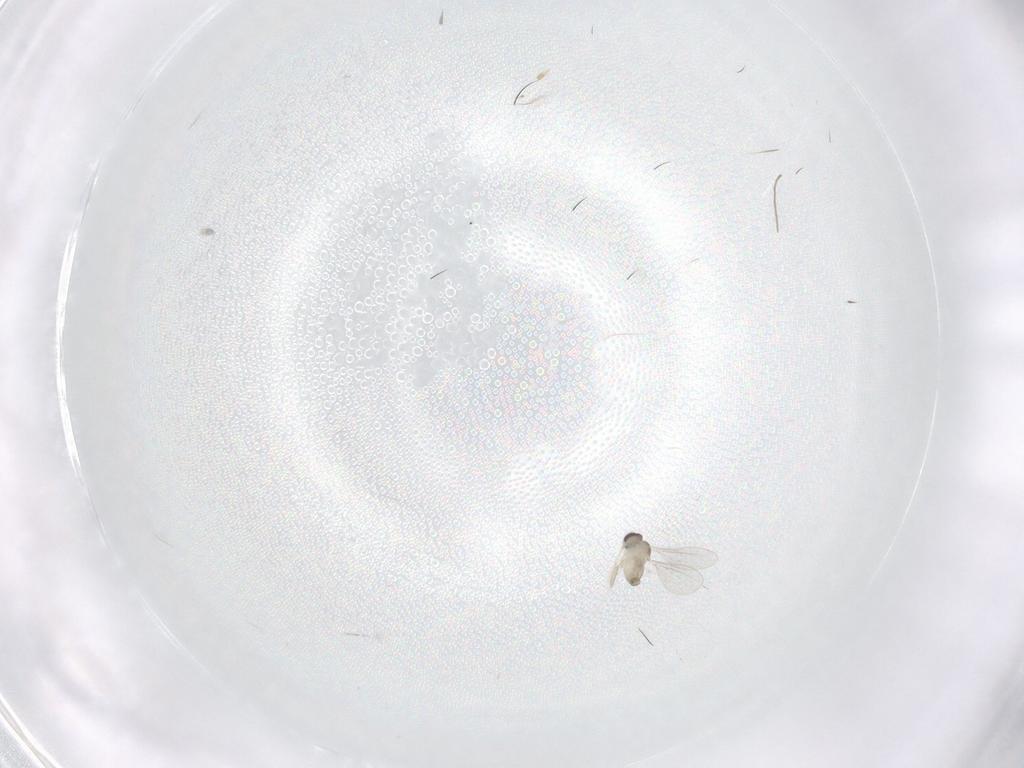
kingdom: Animalia
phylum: Arthropoda
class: Insecta
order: Diptera
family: Cecidomyiidae
